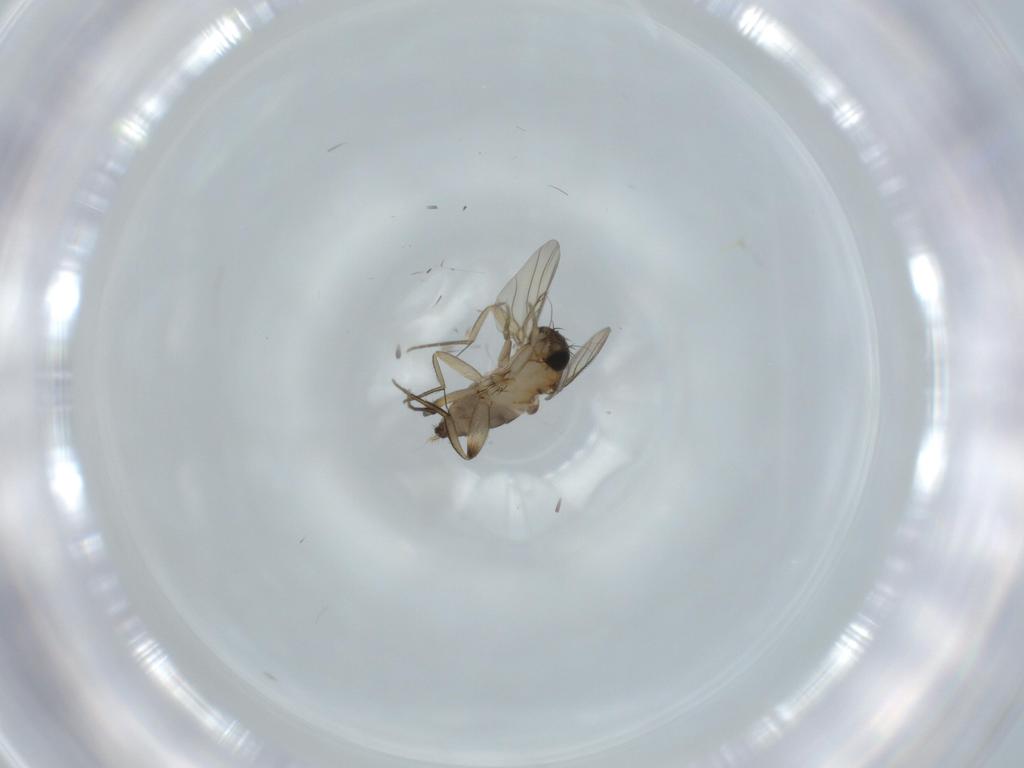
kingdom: Animalia
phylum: Arthropoda
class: Insecta
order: Diptera
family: Phoridae
